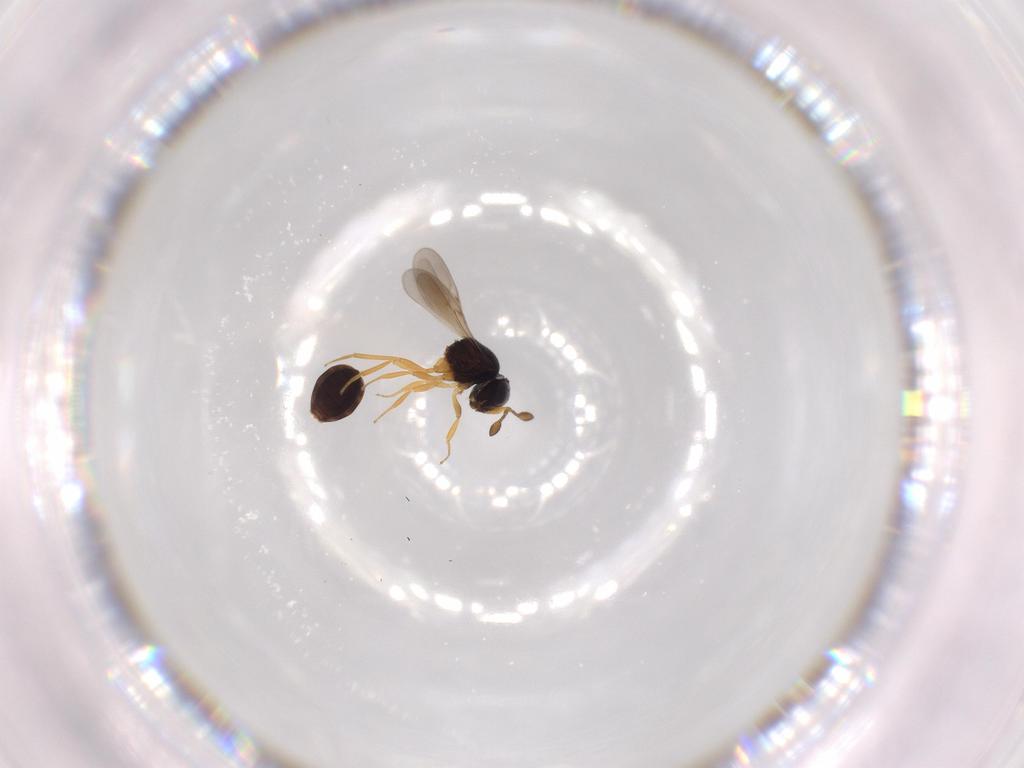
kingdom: Animalia
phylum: Arthropoda
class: Insecta
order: Hymenoptera
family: Scelionidae
